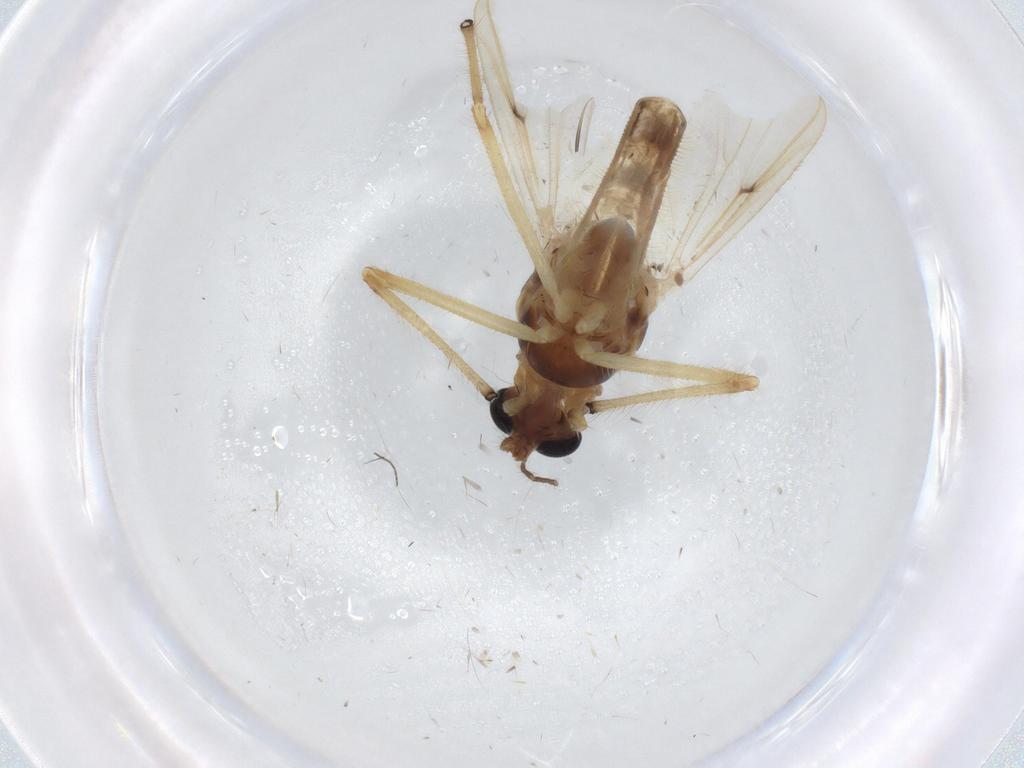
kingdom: Animalia
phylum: Arthropoda
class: Insecta
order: Diptera
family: Chironomidae
